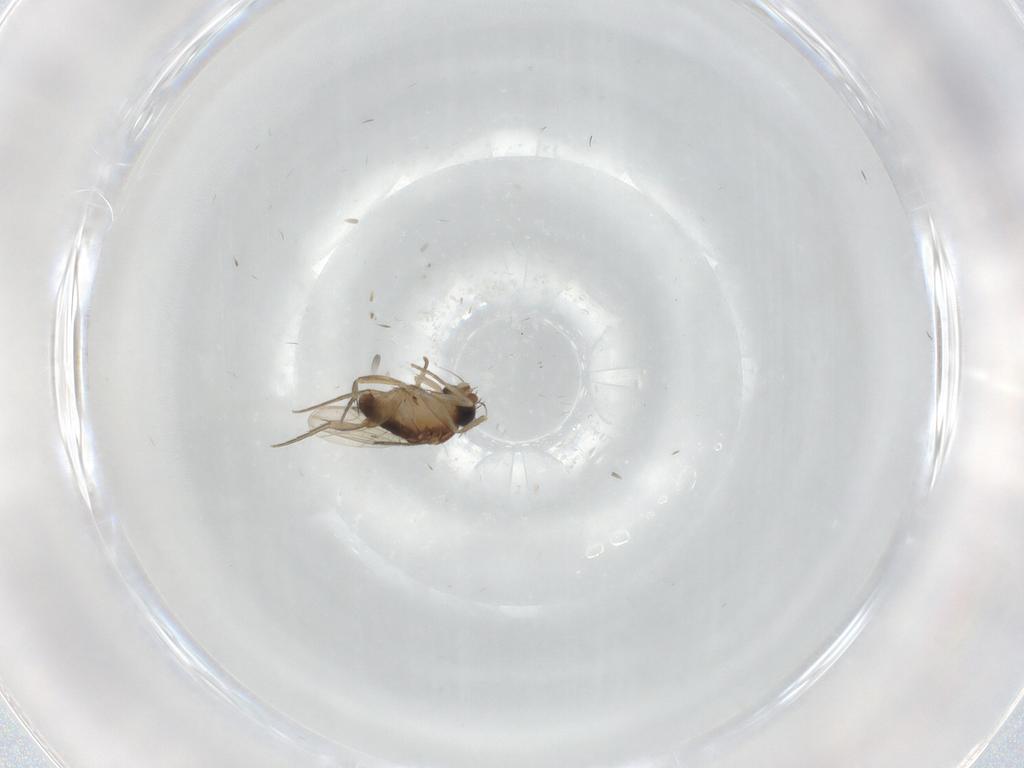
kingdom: Animalia
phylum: Arthropoda
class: Insecta
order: Diptera
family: Phoridae
